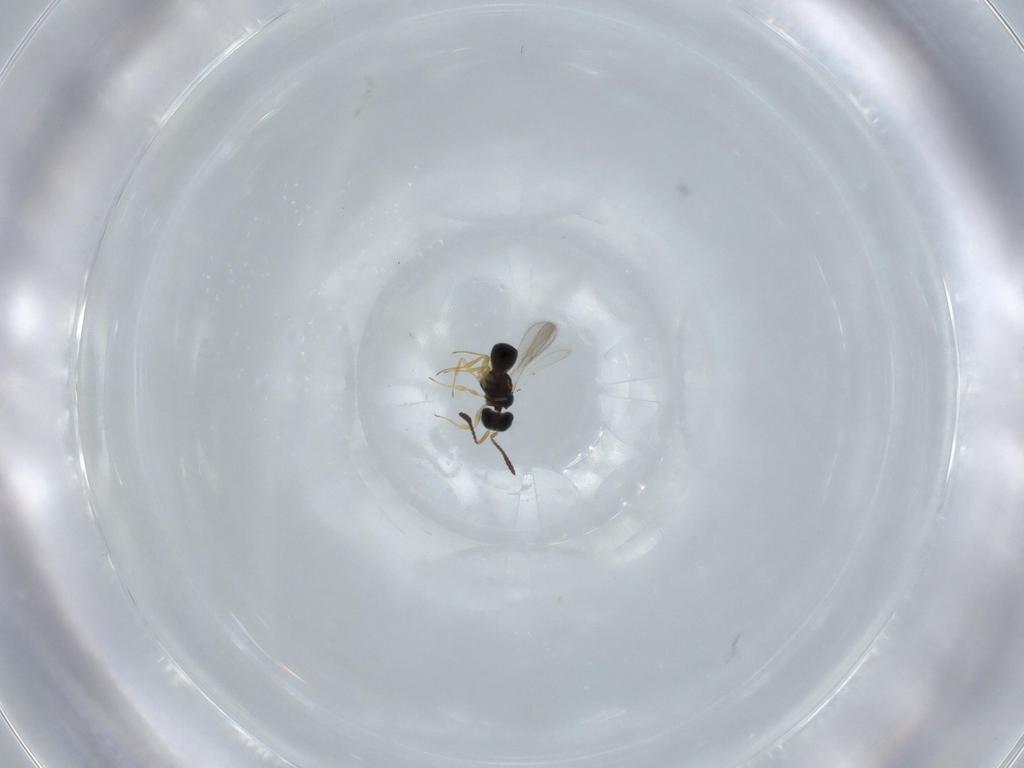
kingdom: Animalia
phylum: Arthropoda
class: Insecta
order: Hymenoptera
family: Scelionidae
